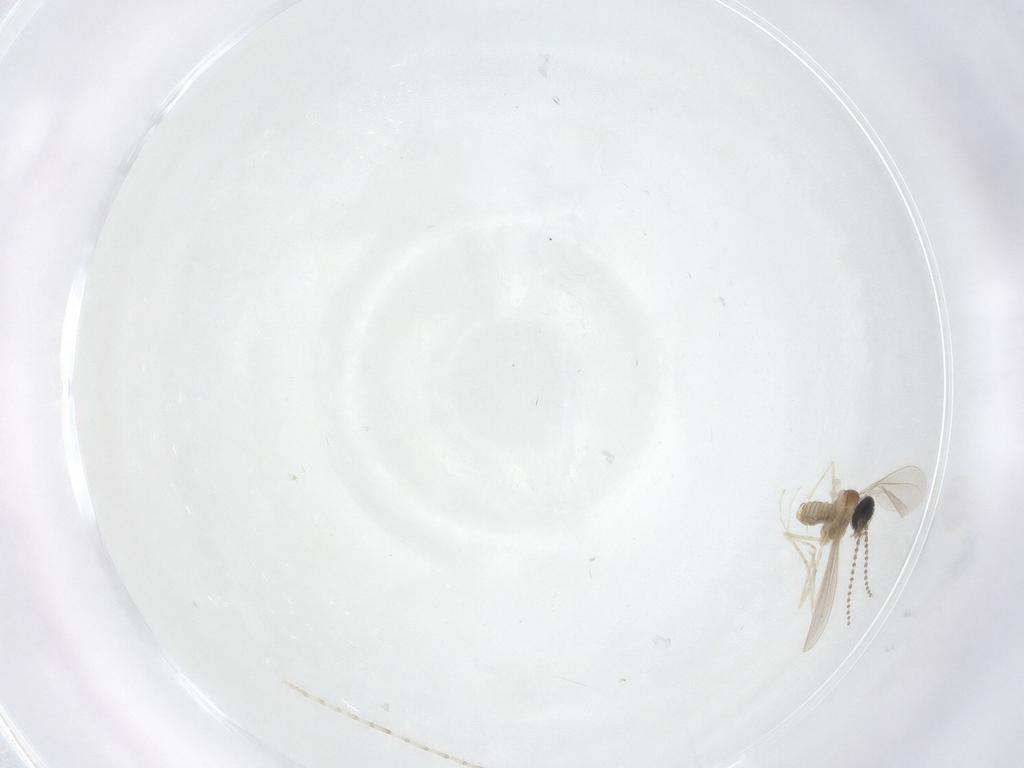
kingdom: Animalia
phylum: Arthropoda
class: Insecta
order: Diptera
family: Cecidomyiidae
